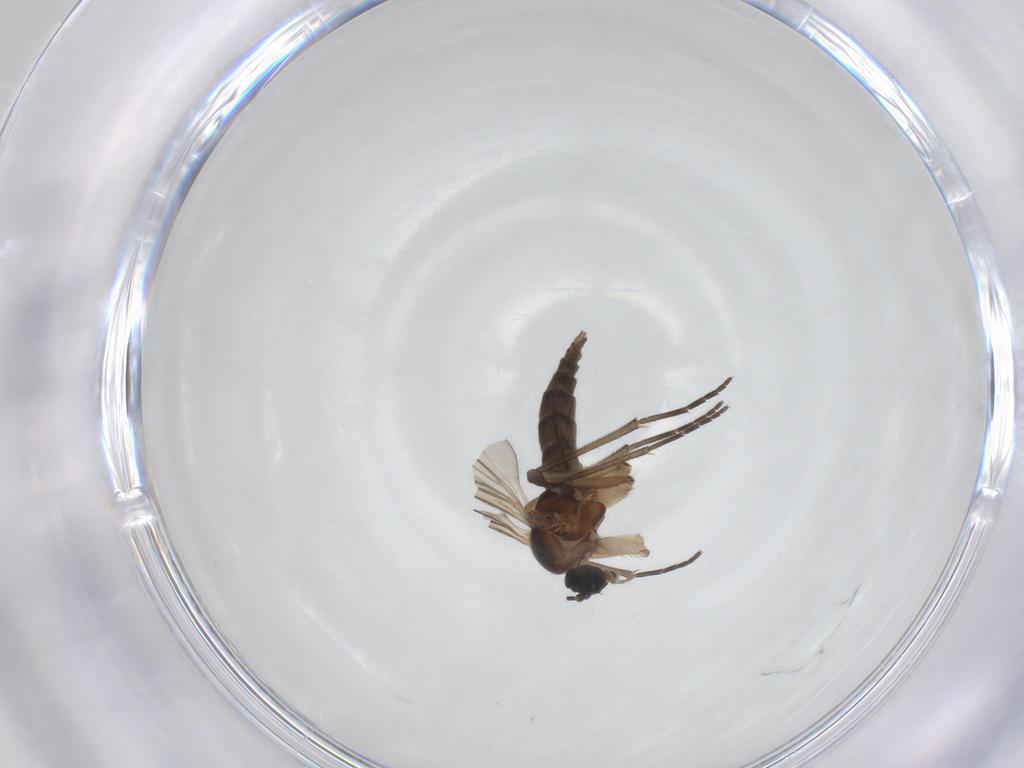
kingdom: Animalia
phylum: Arthropoda
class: Insecta
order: Diptera
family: Sciaridae
